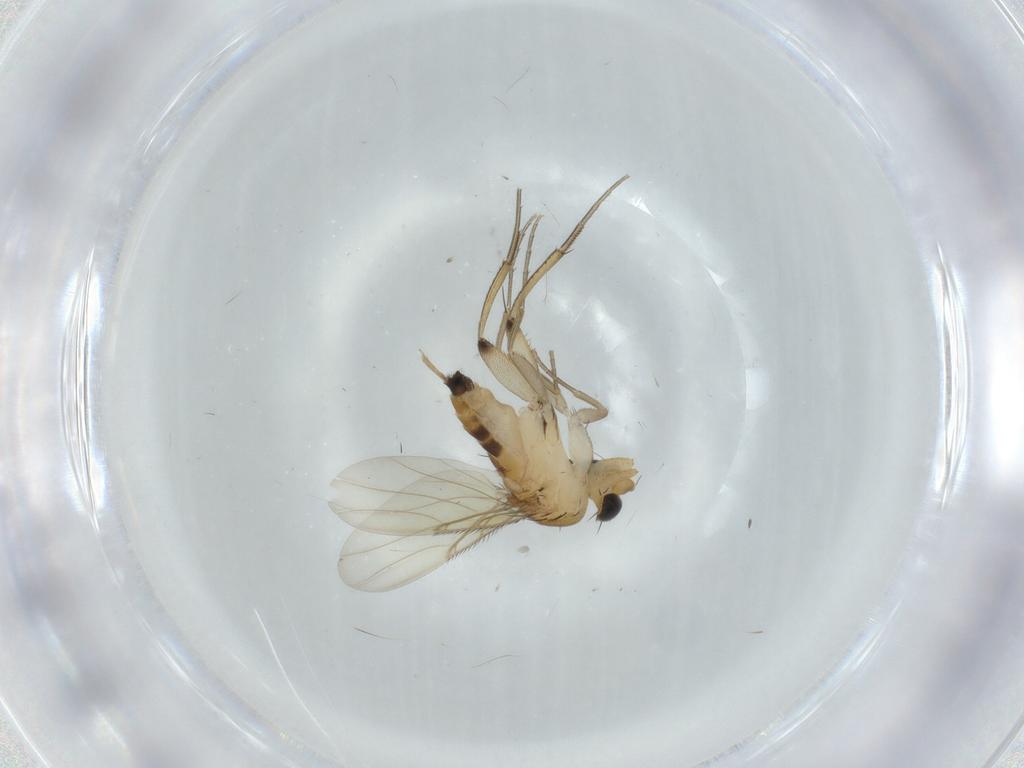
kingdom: Animalia
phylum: Arthropoda
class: Insecta
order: Diptera
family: Phoridae
